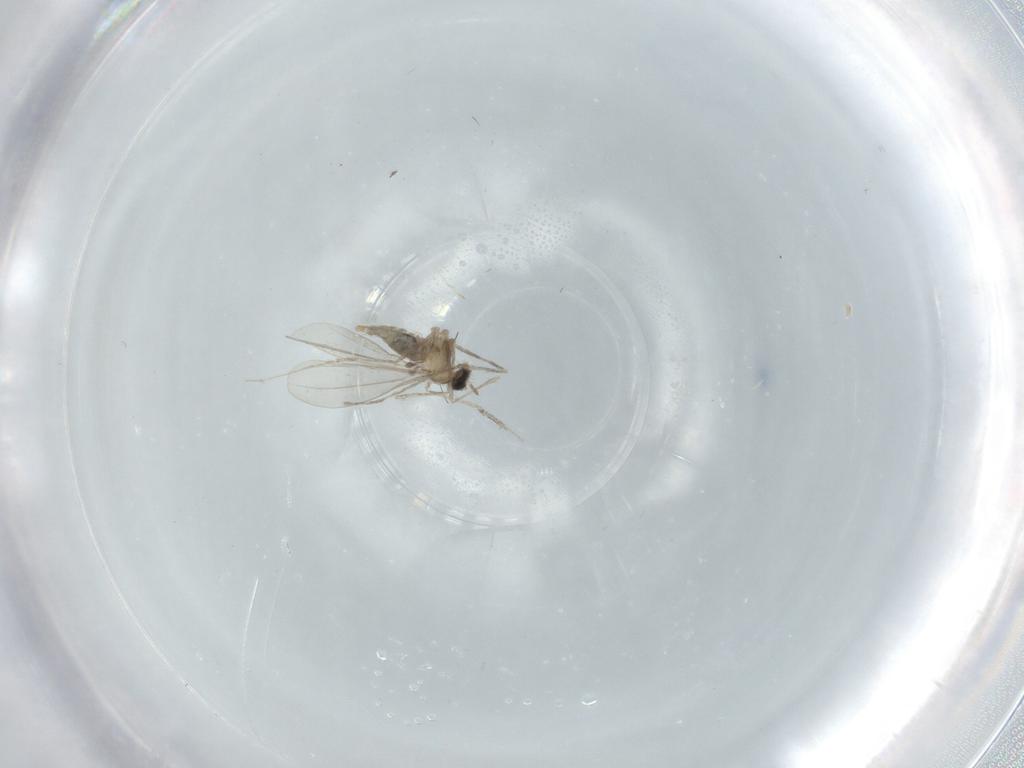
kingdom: Animalia
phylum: Arthropoda
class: Insecta
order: Diptera
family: Cecidomyiidae
